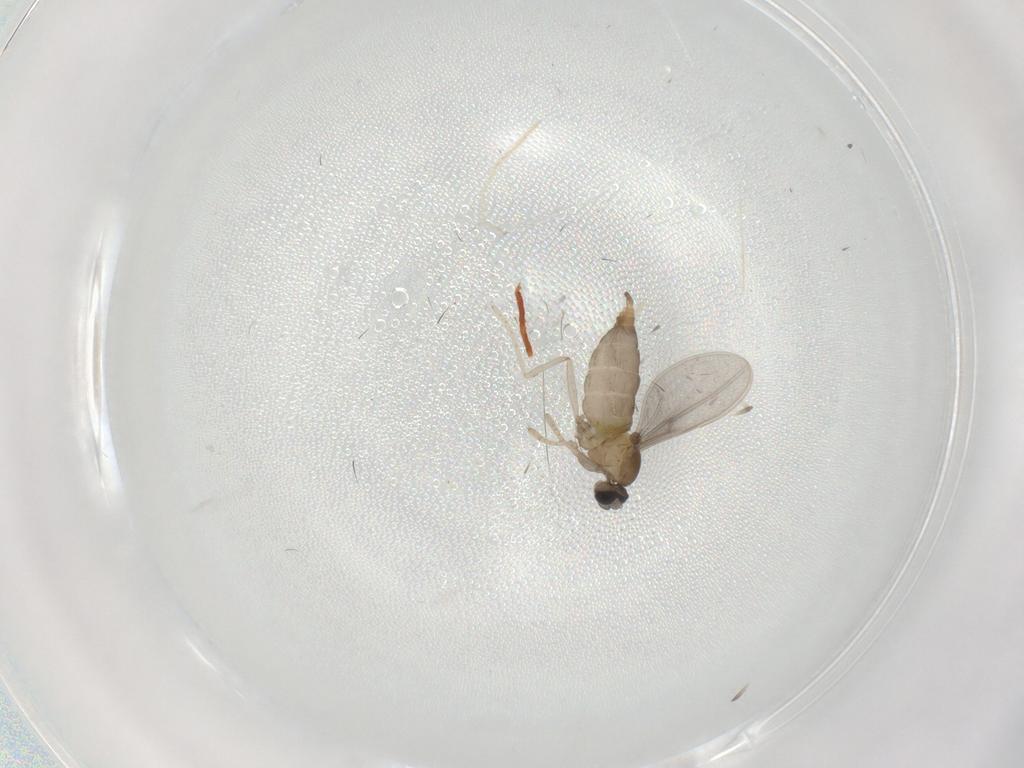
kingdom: Animalia
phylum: Arthropoda
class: Insecta
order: Diptera
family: Cecidomyiidae
